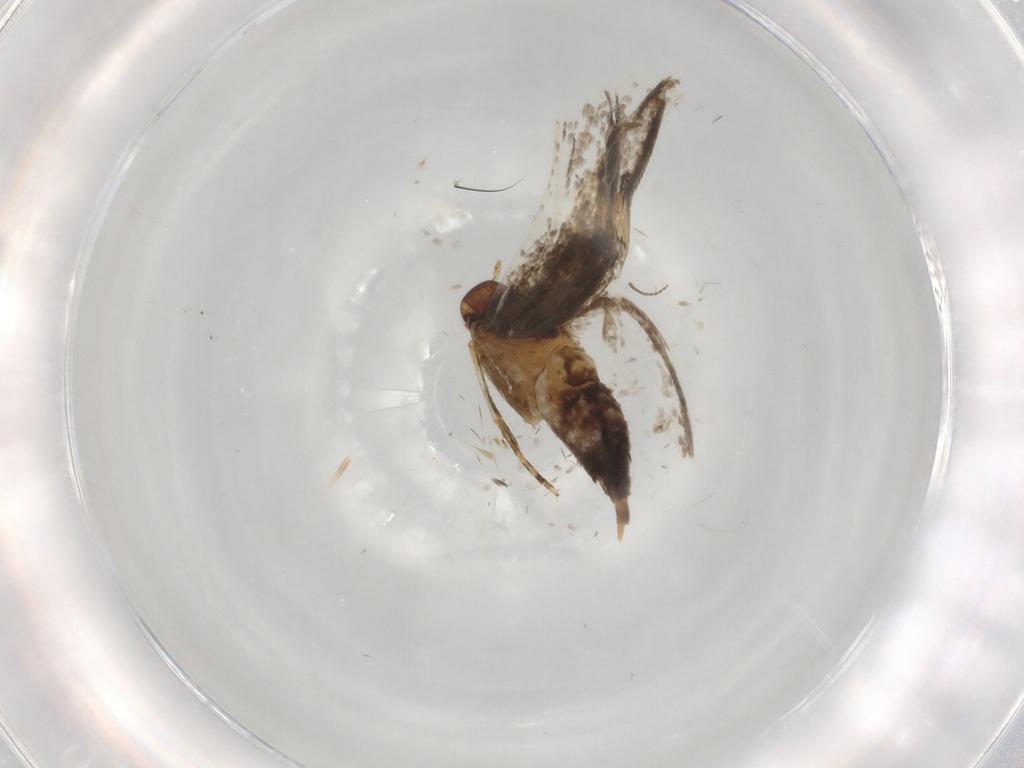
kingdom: Animalia
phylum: Arthropoda
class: Insecta
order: Lepidoptera
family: Oecophoridae
